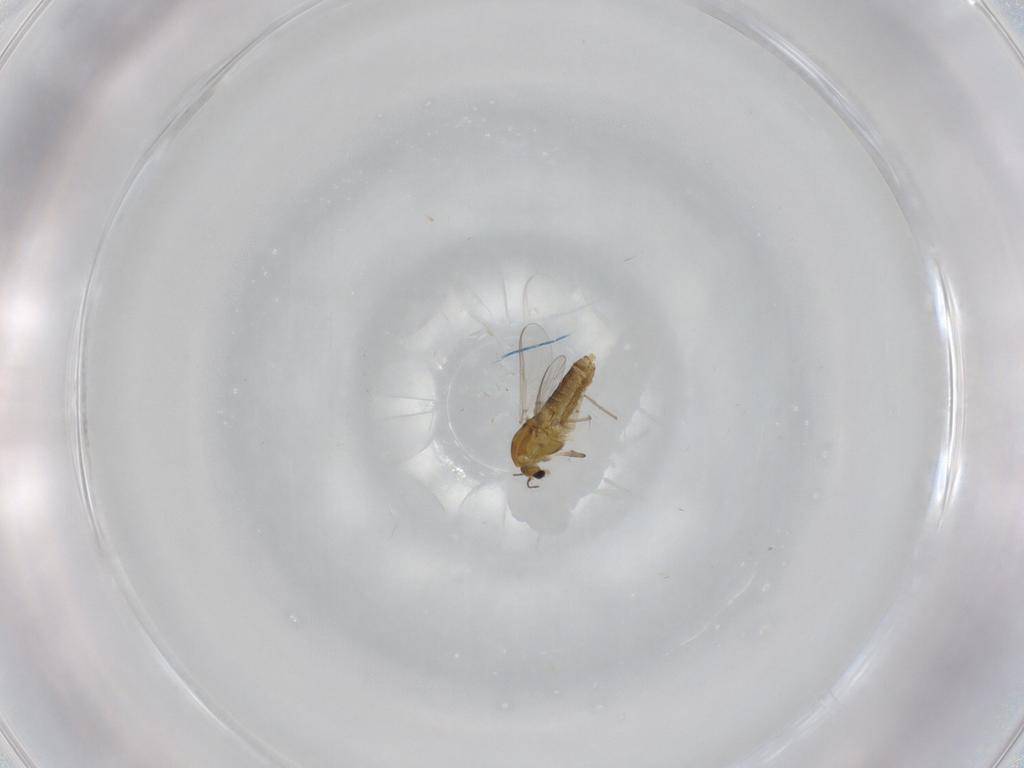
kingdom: Animalia
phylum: Arthropoda
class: Insecta
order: Diptera
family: Chironomidae
